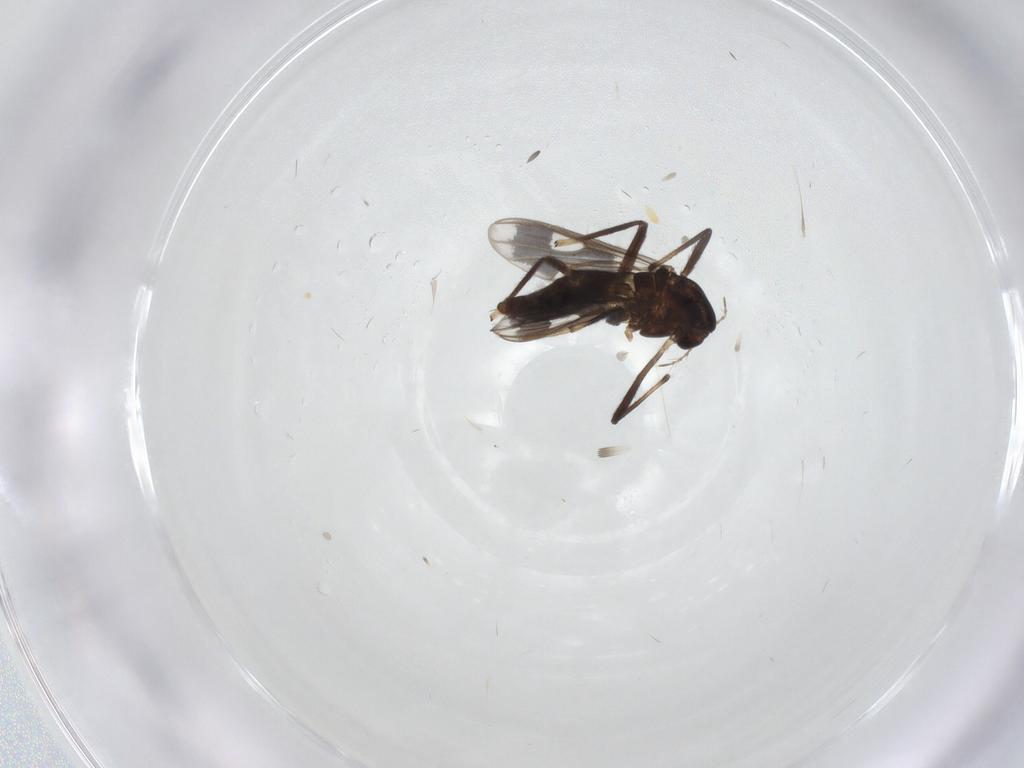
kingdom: Animalia
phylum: Arthropoda
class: Insecta
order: Diptera
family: Chironomidae
